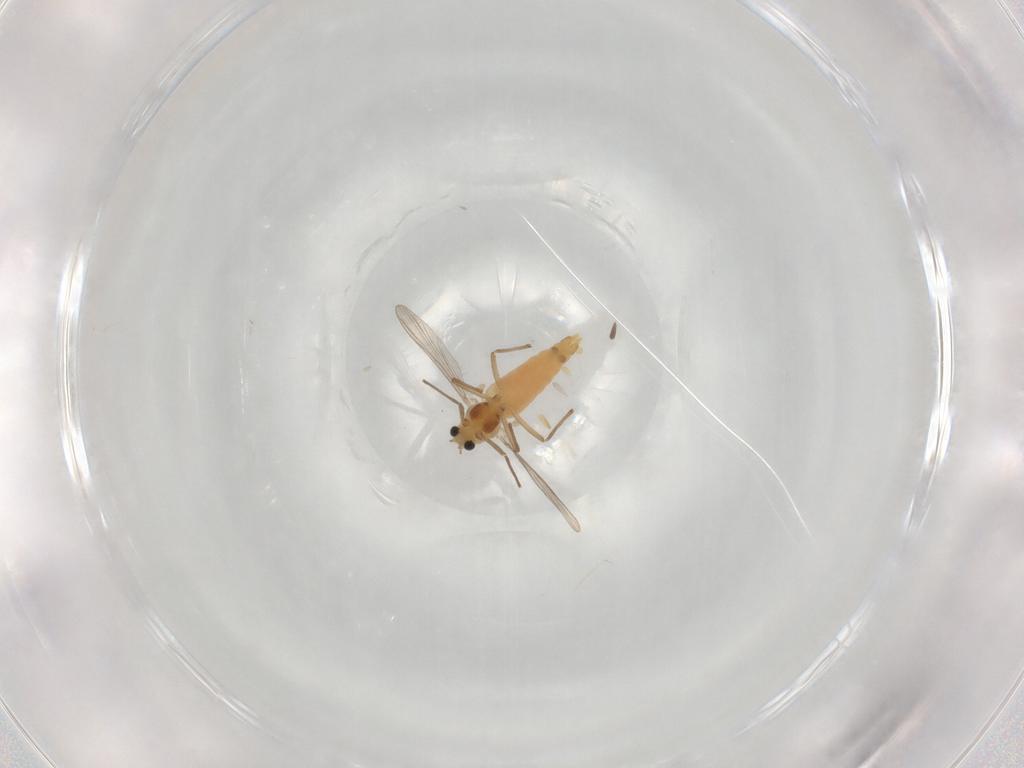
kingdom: Animalia
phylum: Arthropoda
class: Insecta
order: Diptera
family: Chironomidae
